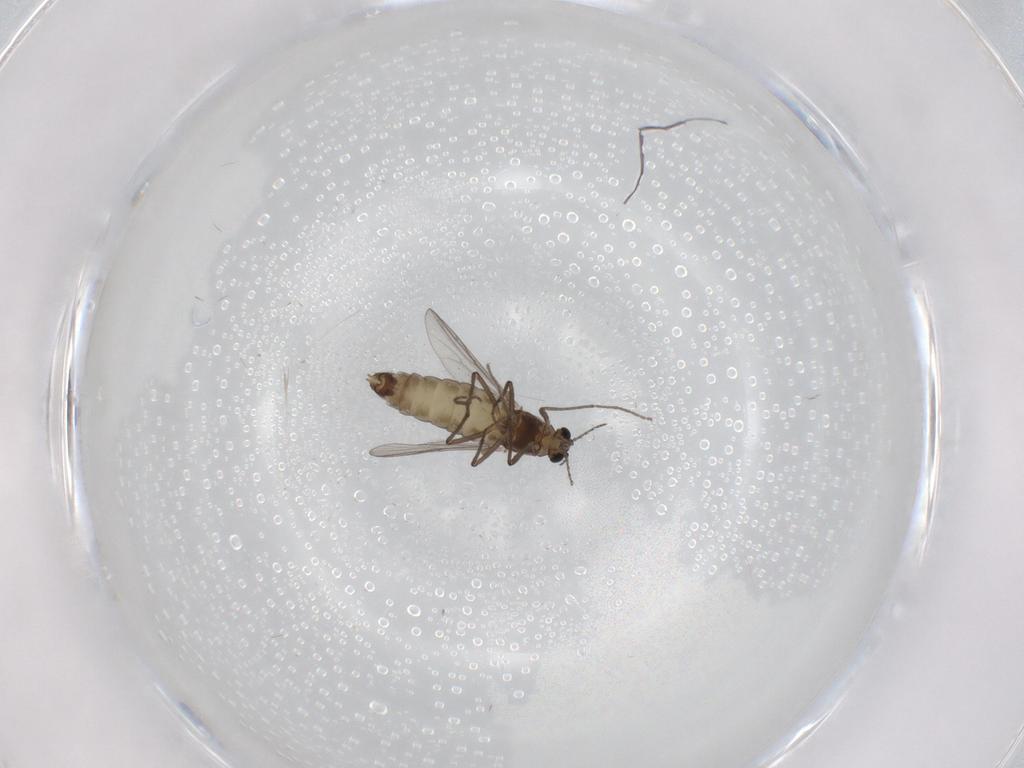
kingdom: Animalia
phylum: Arthropoda
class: Insecta
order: Diptera
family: Chironomidae
